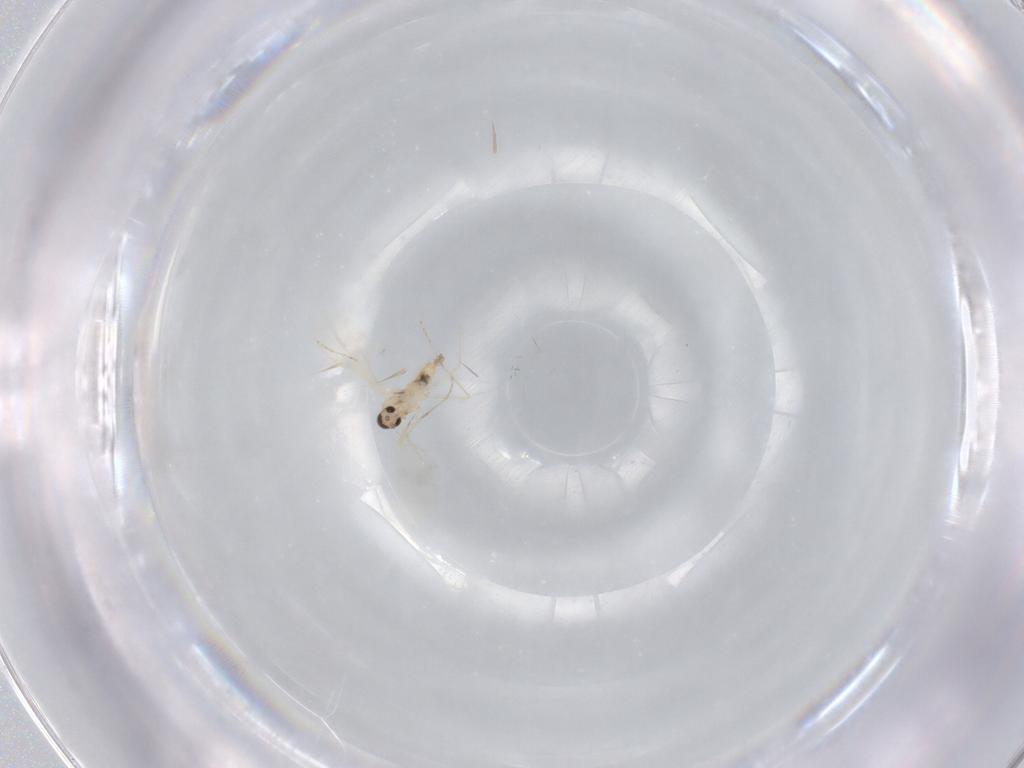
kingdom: Animalia
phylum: Arthropoda
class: Insecta
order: Diptera
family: Cecidomyiidae
